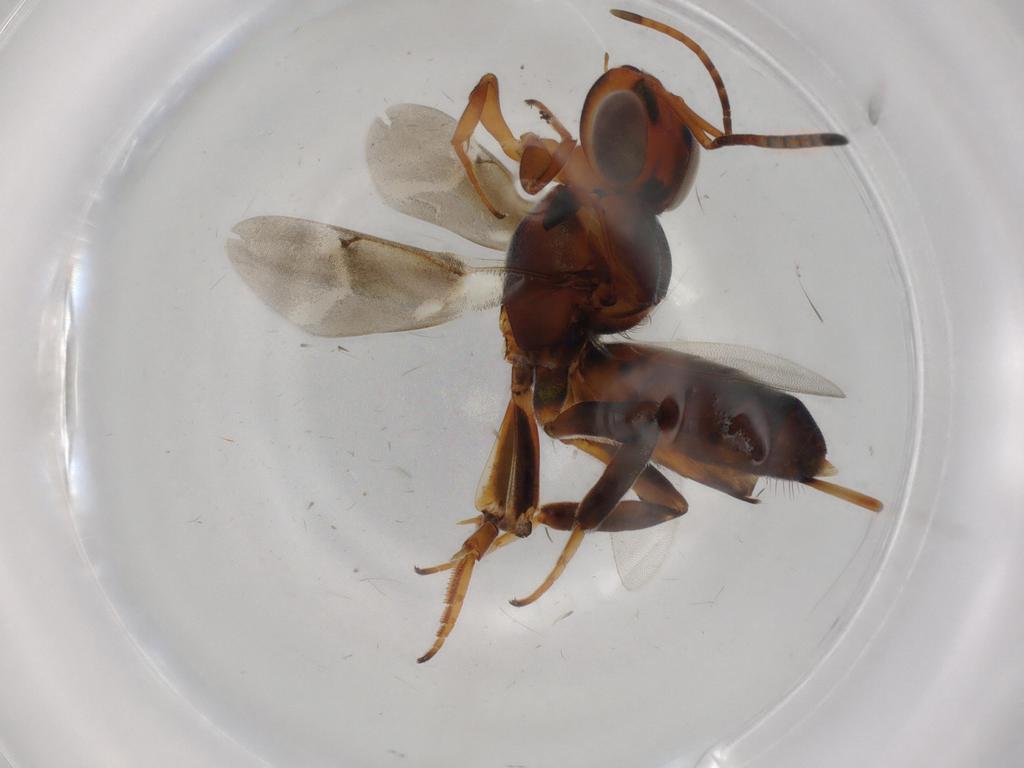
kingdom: Animalia
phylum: Arthropoda
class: Insecta
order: Hymenoptera
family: Eupelmidae
